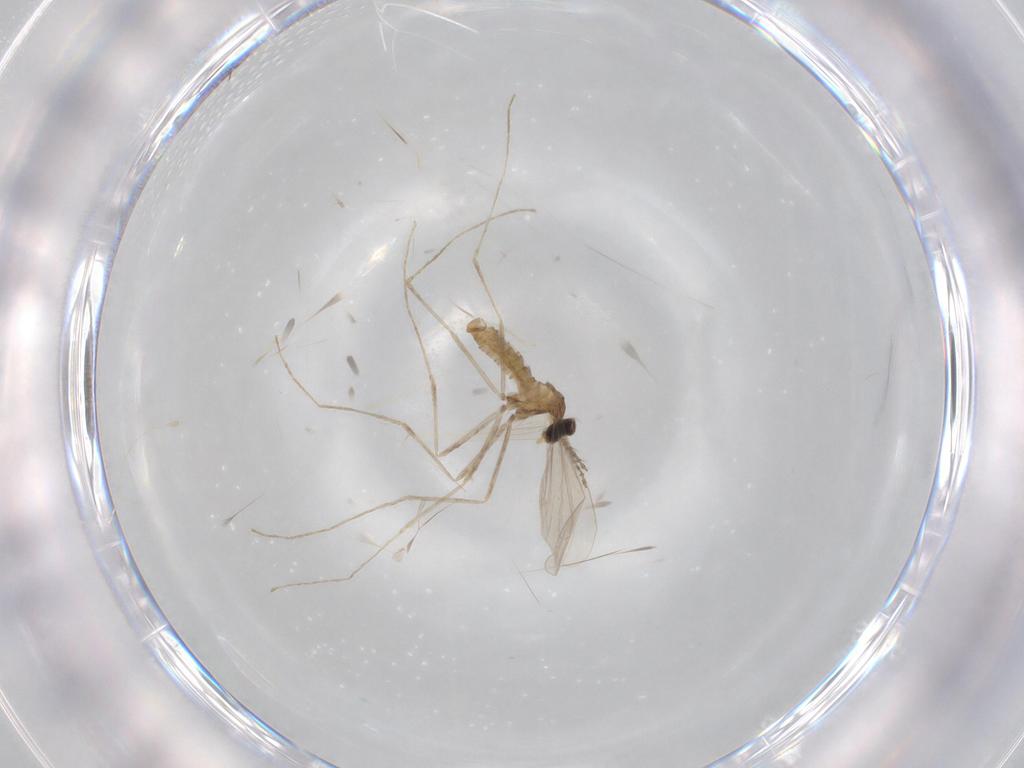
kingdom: Animalia
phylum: Arthropoda
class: Insecta
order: Diptera
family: Cecidomyiidae
